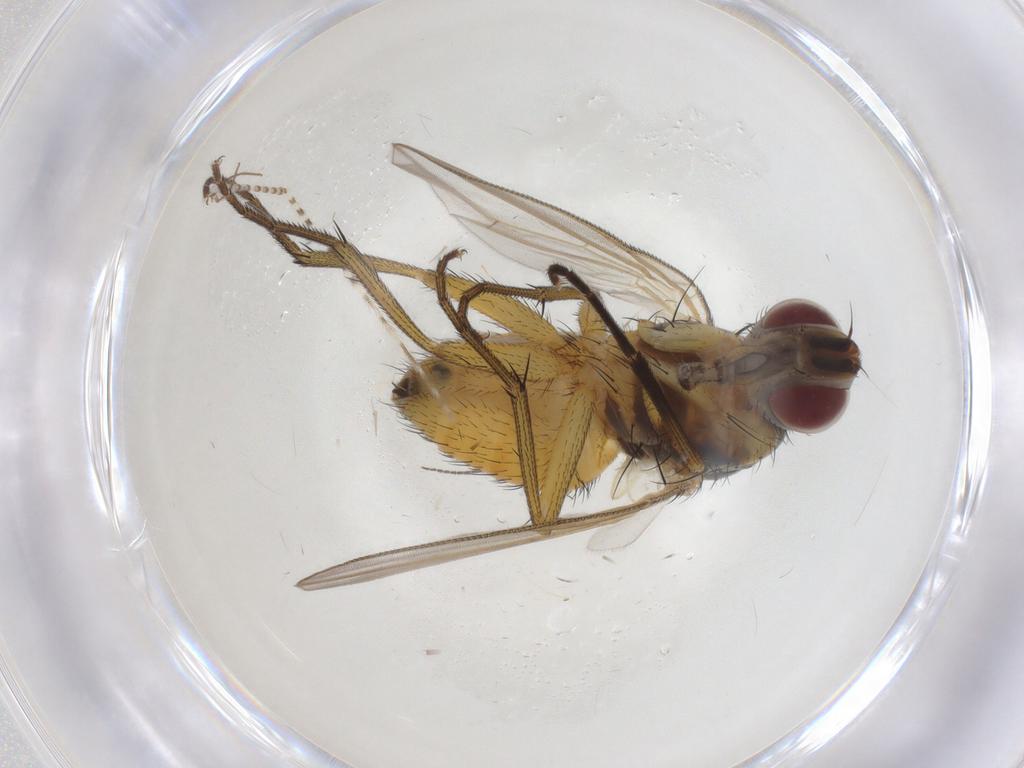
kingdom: Animalia
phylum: Arthropoda
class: Insecta
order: Diptera
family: Muscidae
